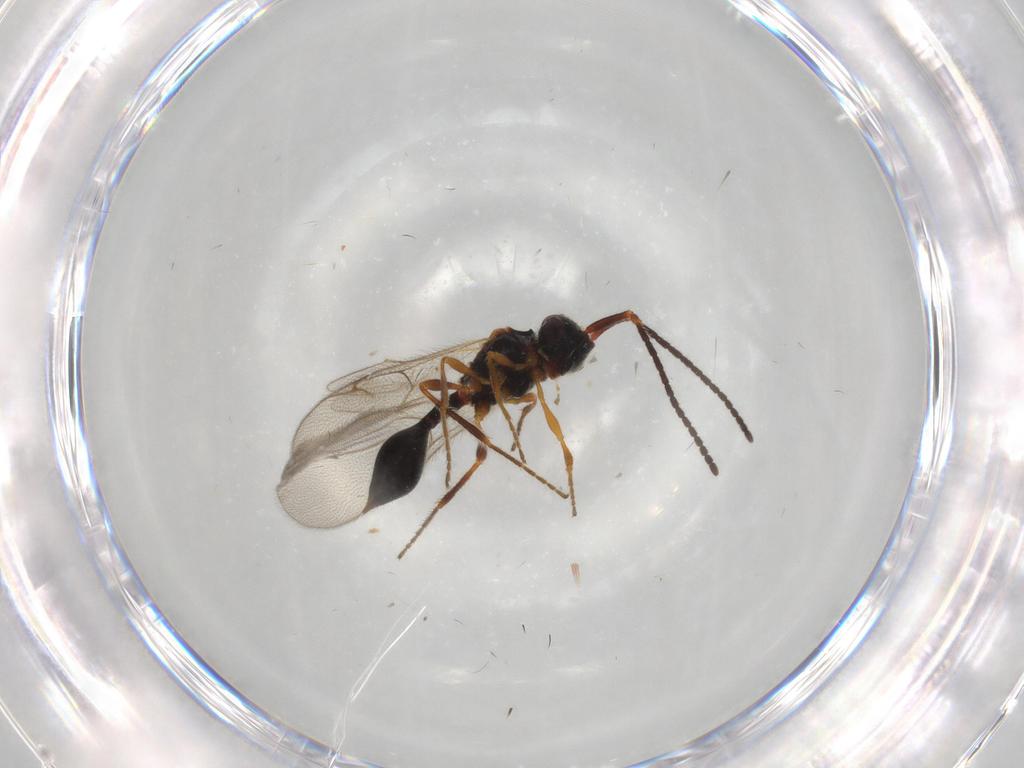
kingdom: Animalia
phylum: Arthropoda
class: Insecta
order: Hymenoptera
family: Diapriidae
